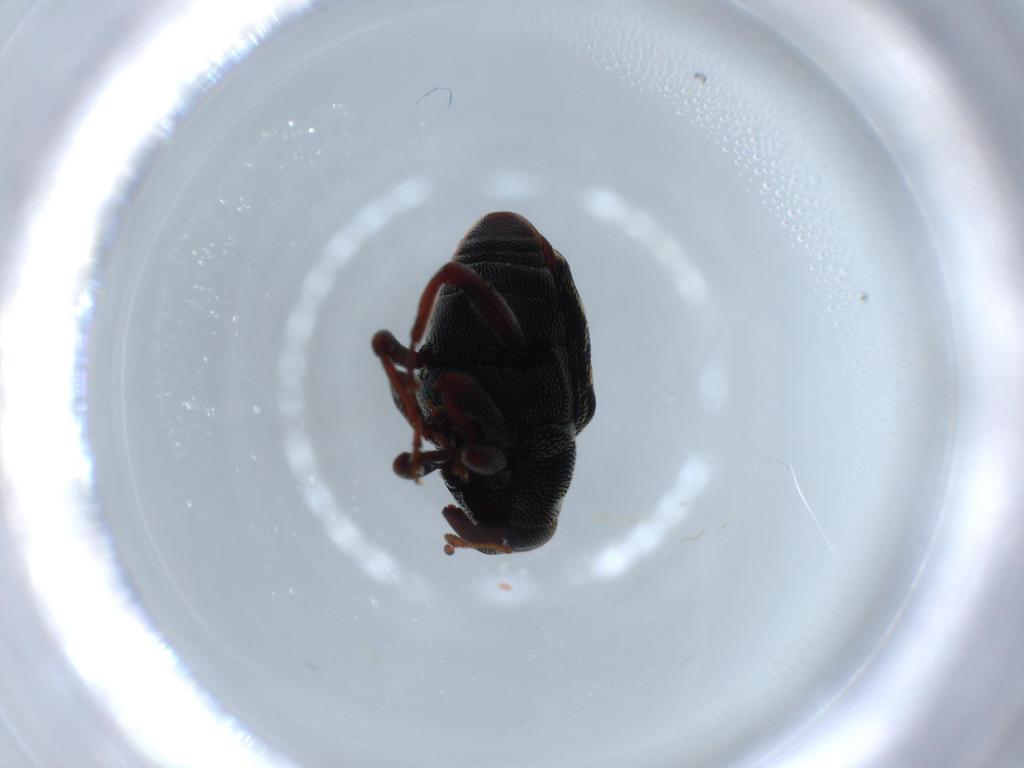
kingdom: Animalia
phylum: Arthropoda
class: Insecta
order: Coleoptera
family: Curculionidae
